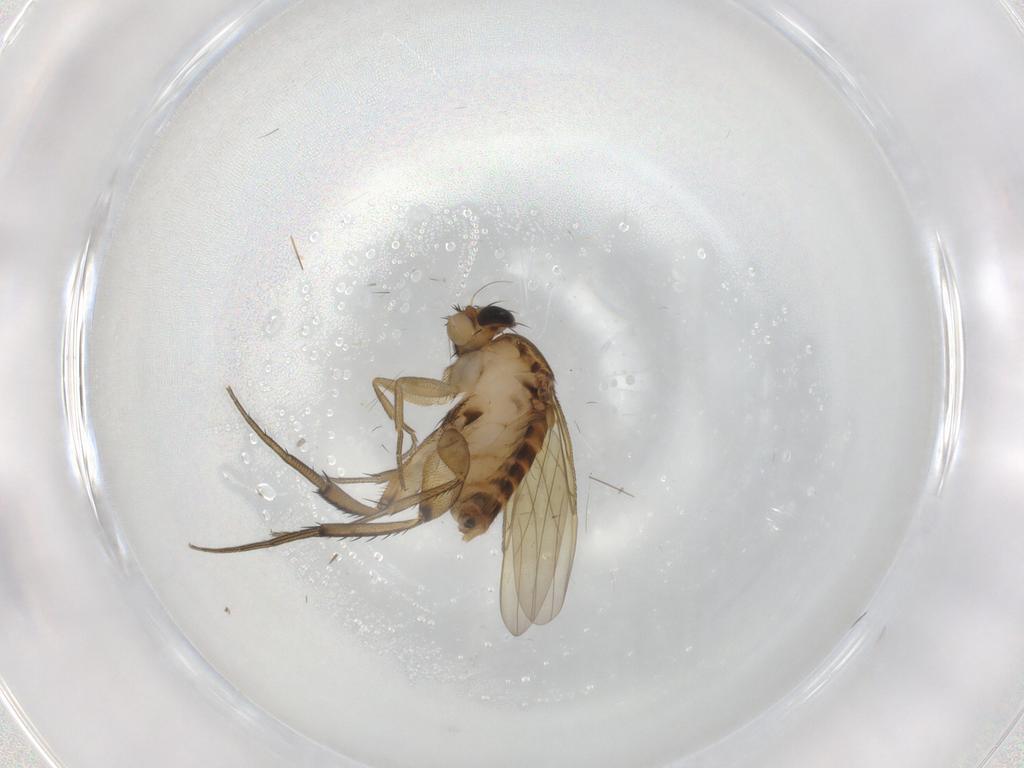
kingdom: Animalia
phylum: Arthropoda
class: Insecta
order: Diptera
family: Phoridae
